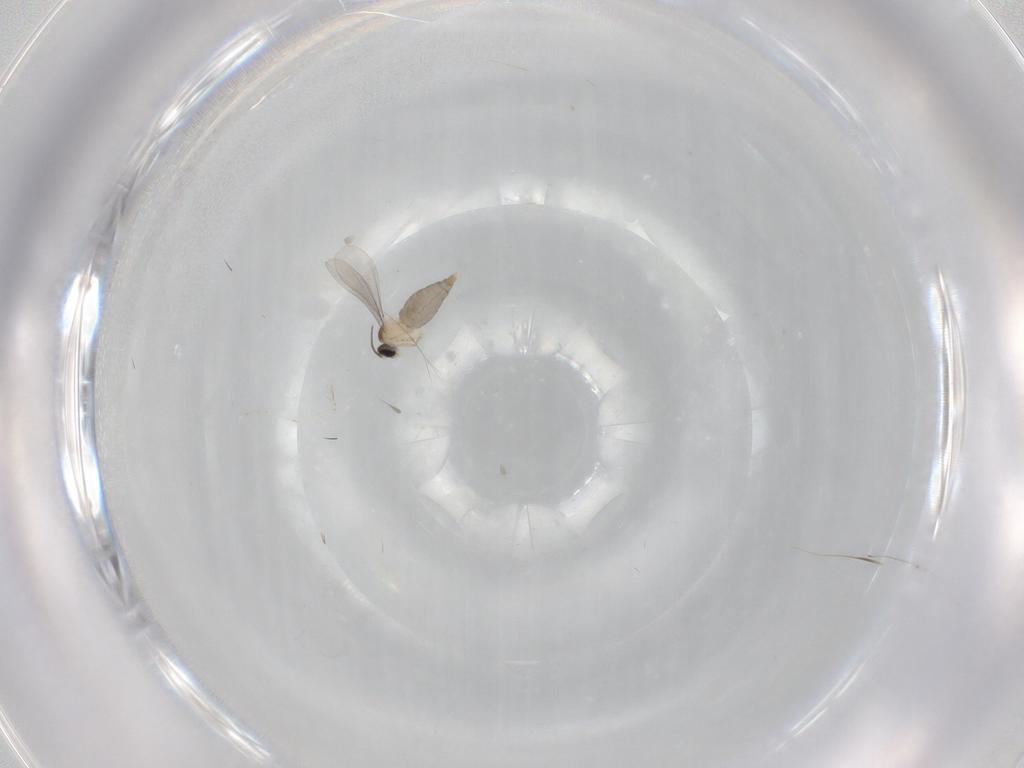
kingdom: Animalia
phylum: Arthropoda
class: Insecta
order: Diptera
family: Cecidomyiidae
